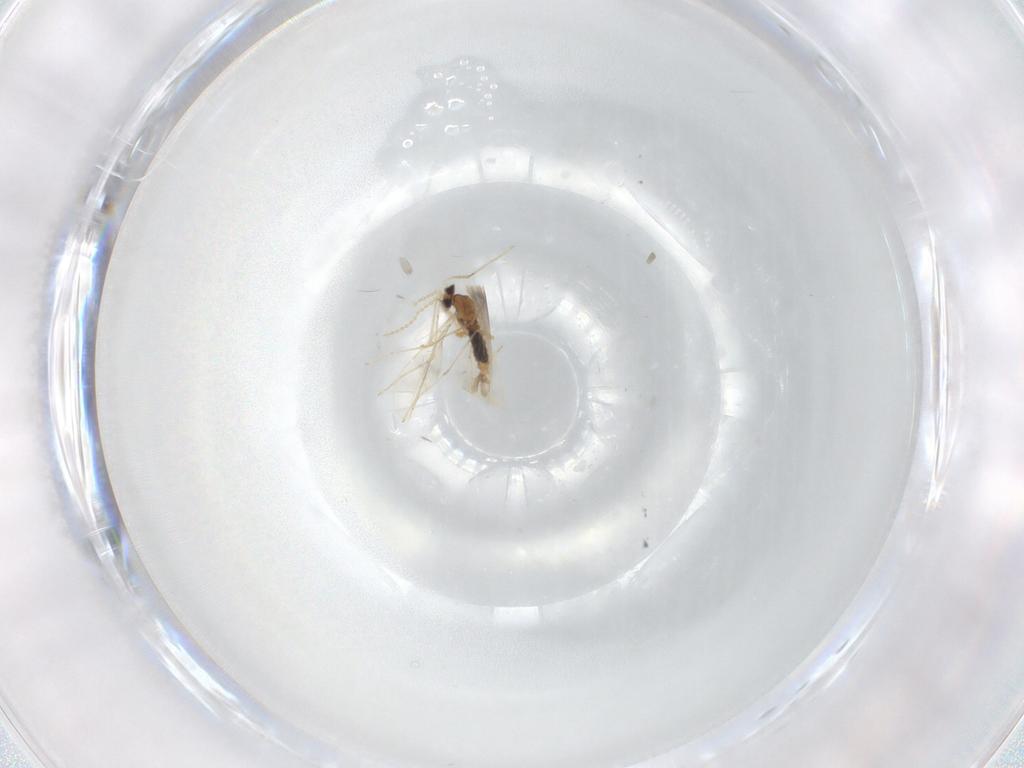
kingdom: Animalia
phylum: Arthropoda
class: Insecta
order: Diptera
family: Cecidomyiidae
